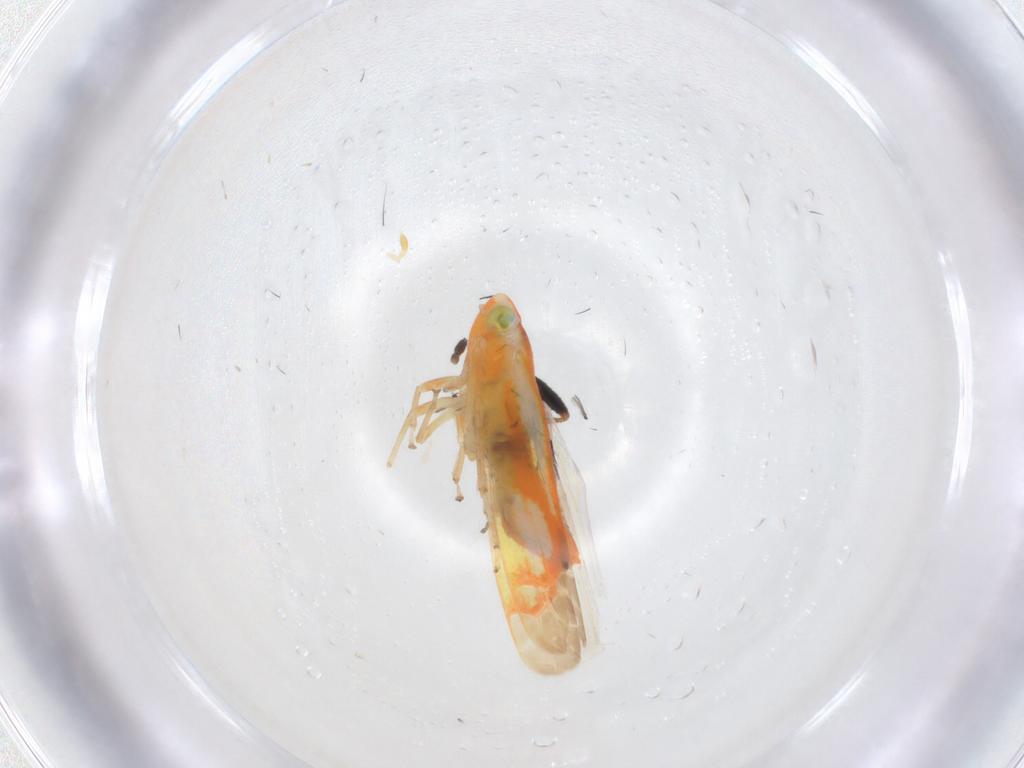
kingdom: Animalia
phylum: Arthropoda
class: Insecta
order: Hemiptera
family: Cicadellidae
